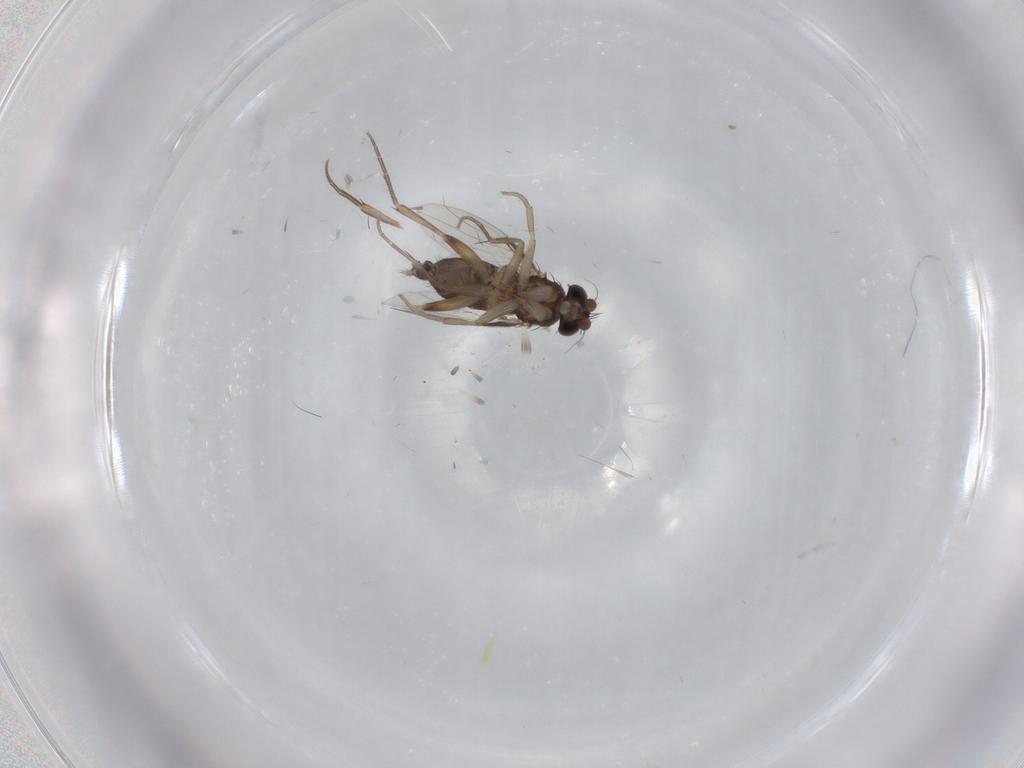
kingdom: Animalia
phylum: Arthropoda
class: Insecta
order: Diptera
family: Phoridae
